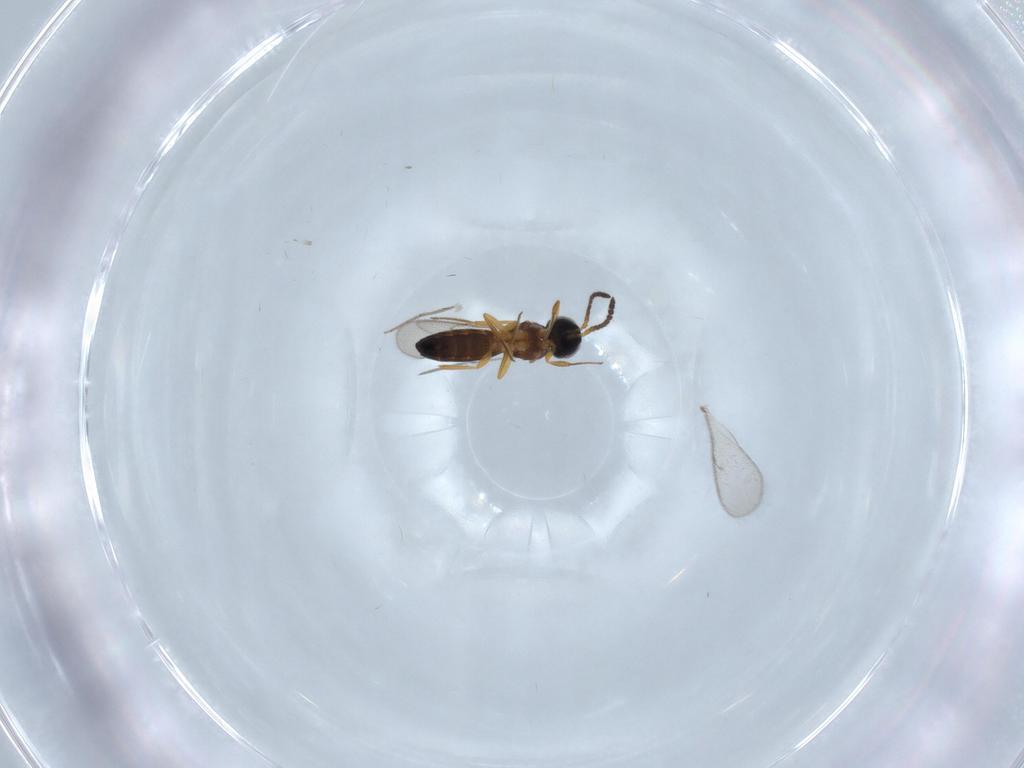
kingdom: Animalia
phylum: Arthropoda
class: Insecta
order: Hymenoptera
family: Scelionidae
